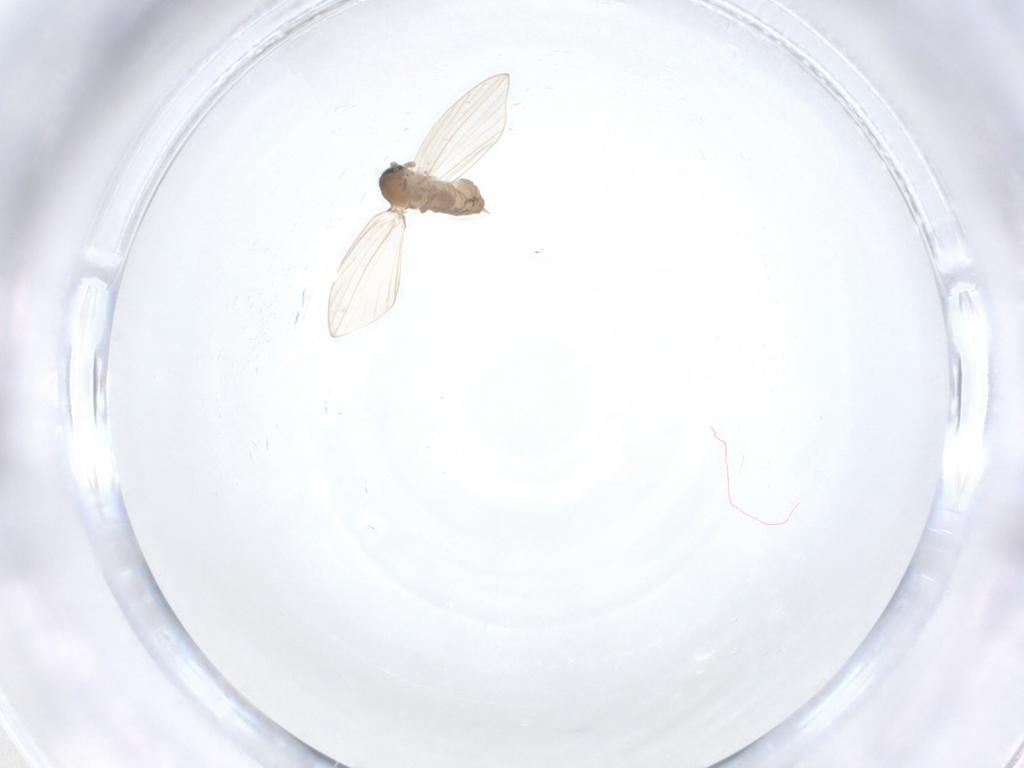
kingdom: Animalia
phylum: Arthropoda
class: Insecta
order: Diptera
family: Psychodidae
